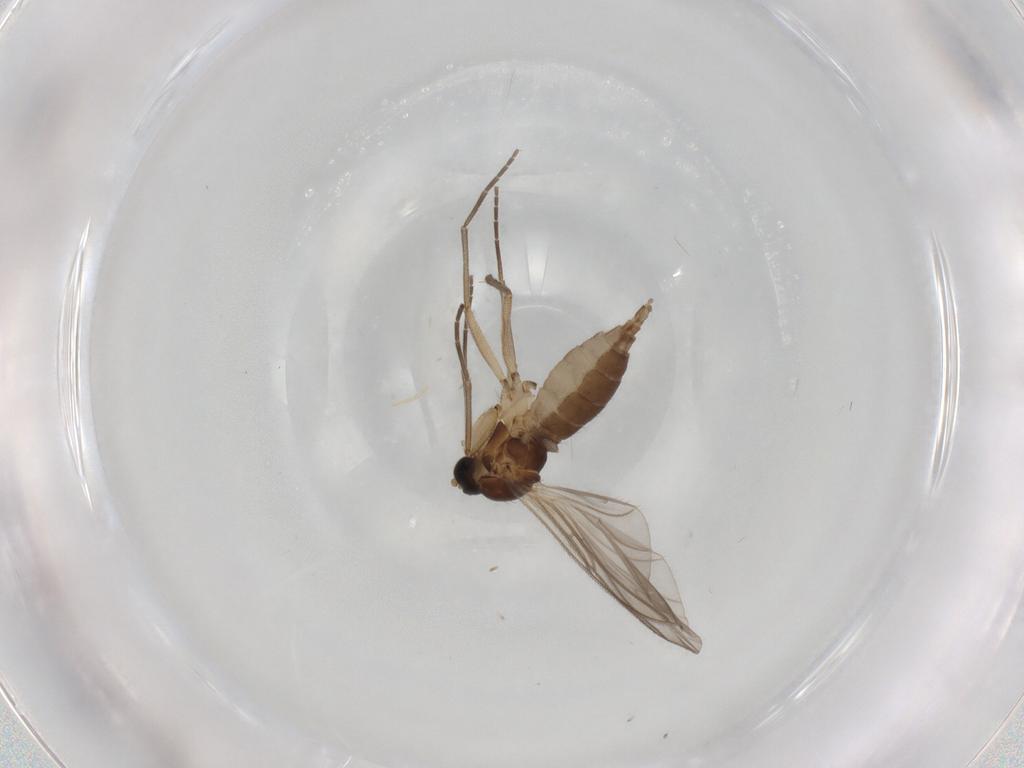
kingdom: Animalia
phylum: Arthropoda
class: Insecta
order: Diptera
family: Sciaridae
